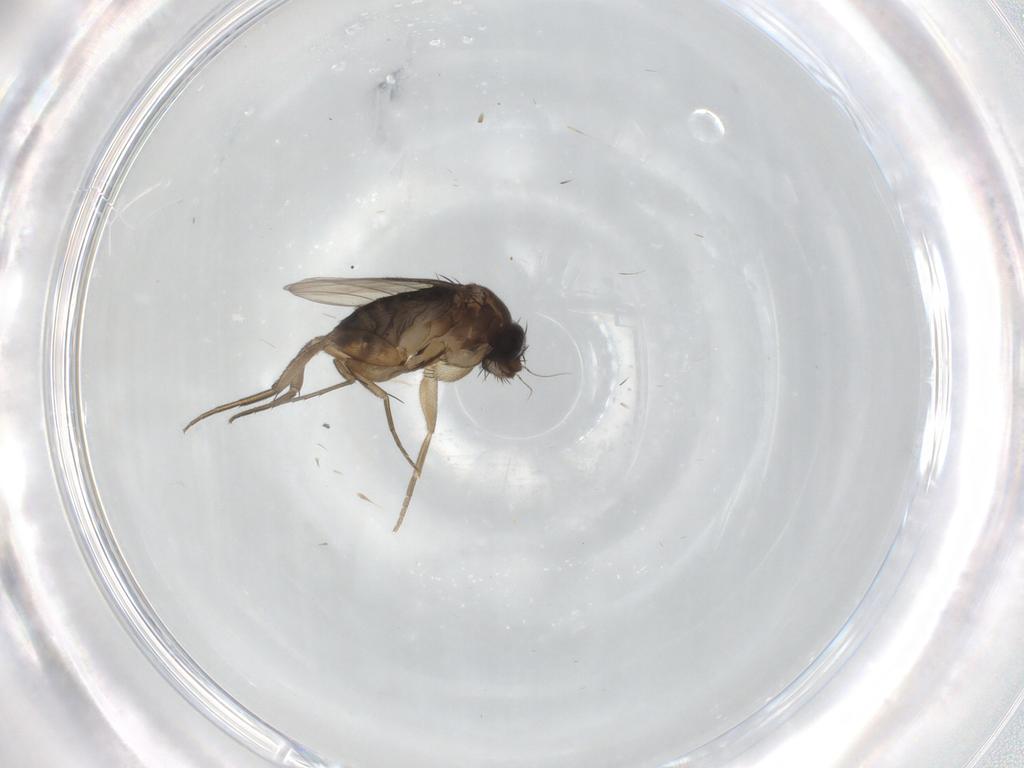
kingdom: Animalia
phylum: Arthropoda
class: Insecta
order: Diptera
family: Phoridae
